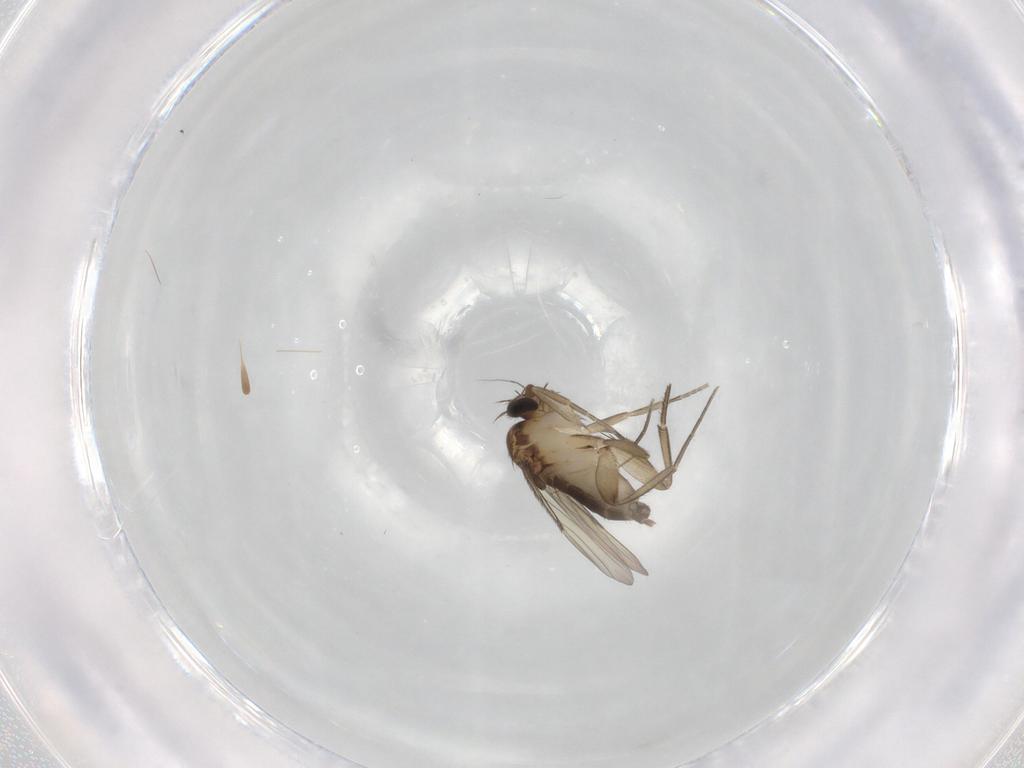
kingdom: Animalia
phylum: Arthropoda
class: Insecta
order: Diptera
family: Phoridae
